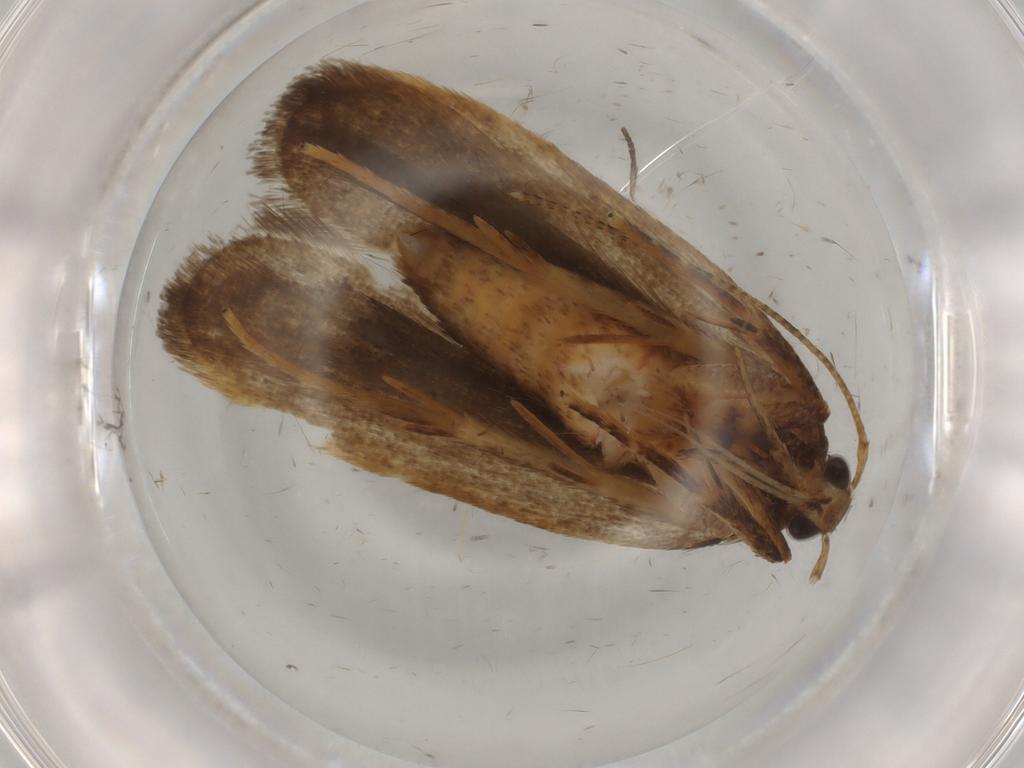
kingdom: Animalia
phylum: Arthropoda
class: Insecta
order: Lepidoptera
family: Autostichidae
